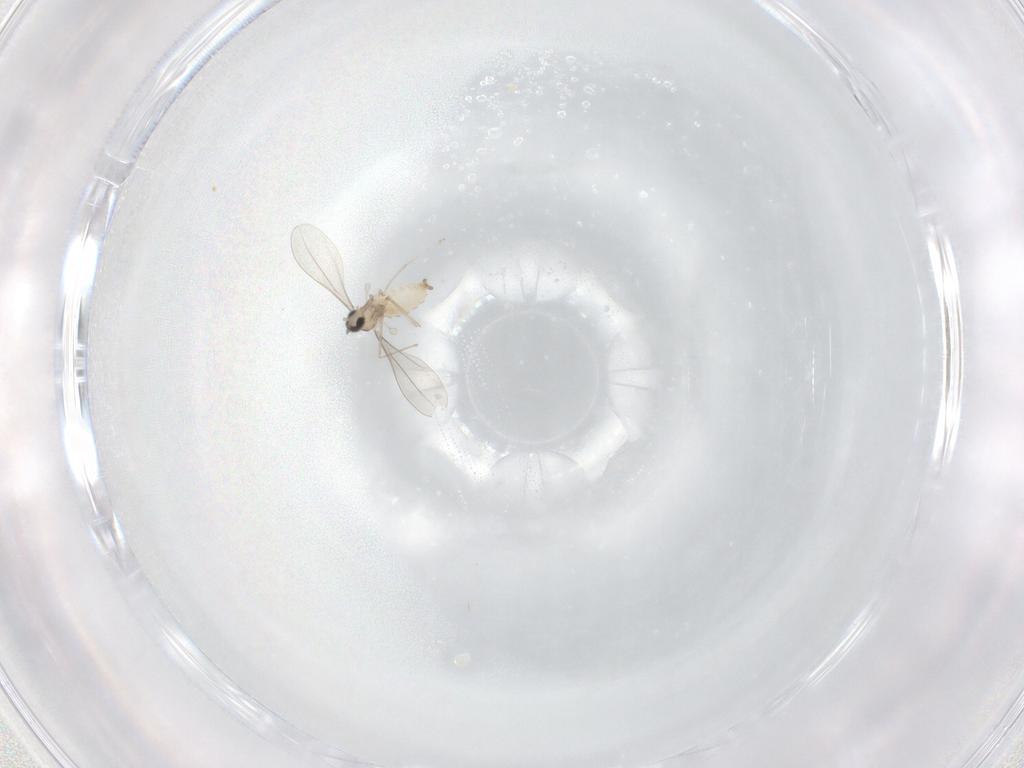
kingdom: Animalia
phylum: Arthropoda
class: Insecta
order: Diptera
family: Cecidomyiidae
